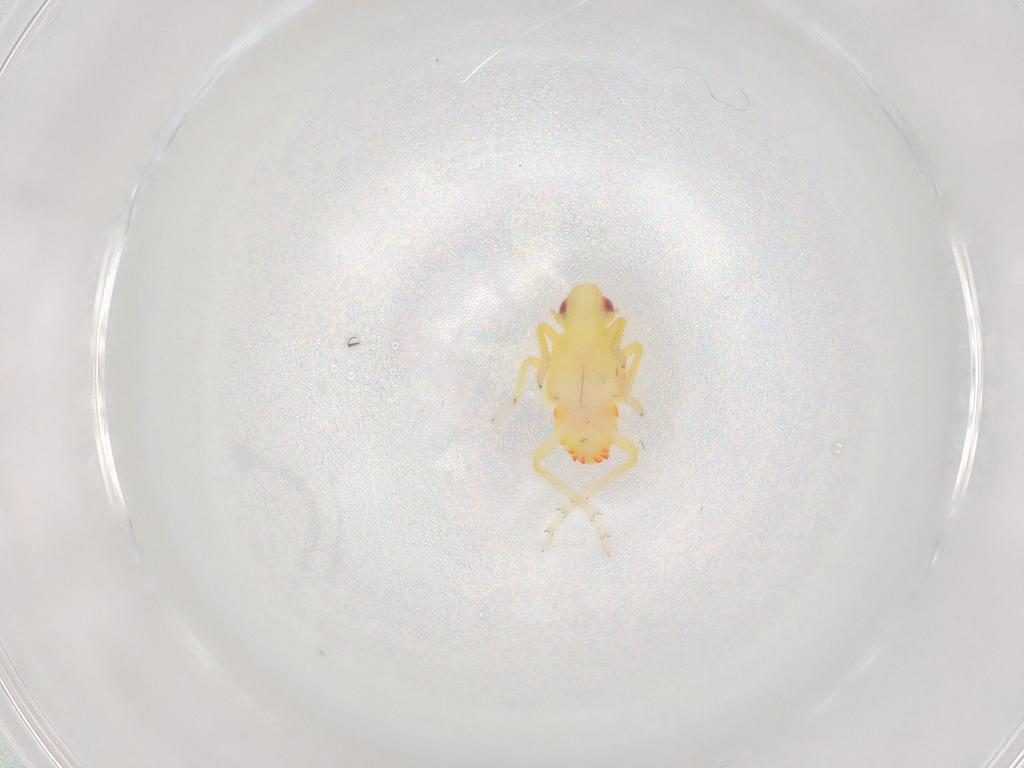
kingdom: Animalia
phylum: Arthropoda
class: Insecta
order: Hemiptera
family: Tropiduchidae
